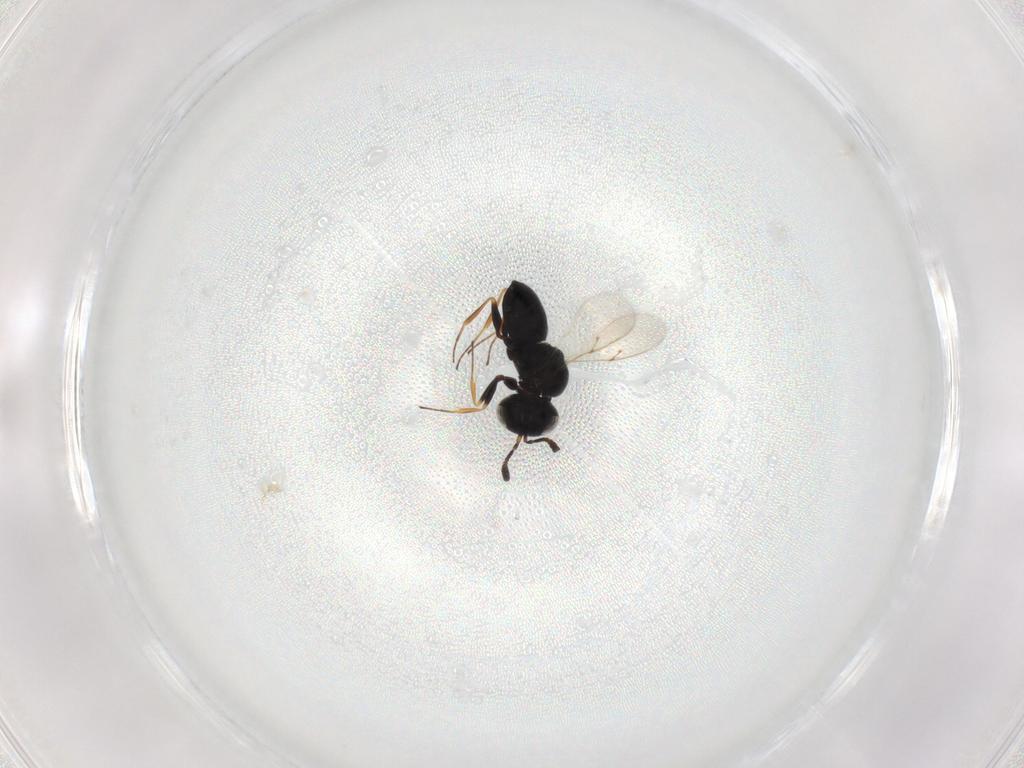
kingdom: Animalia
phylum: Arthropoda
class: Insecta
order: Hymenoptera
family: Scelionidae
